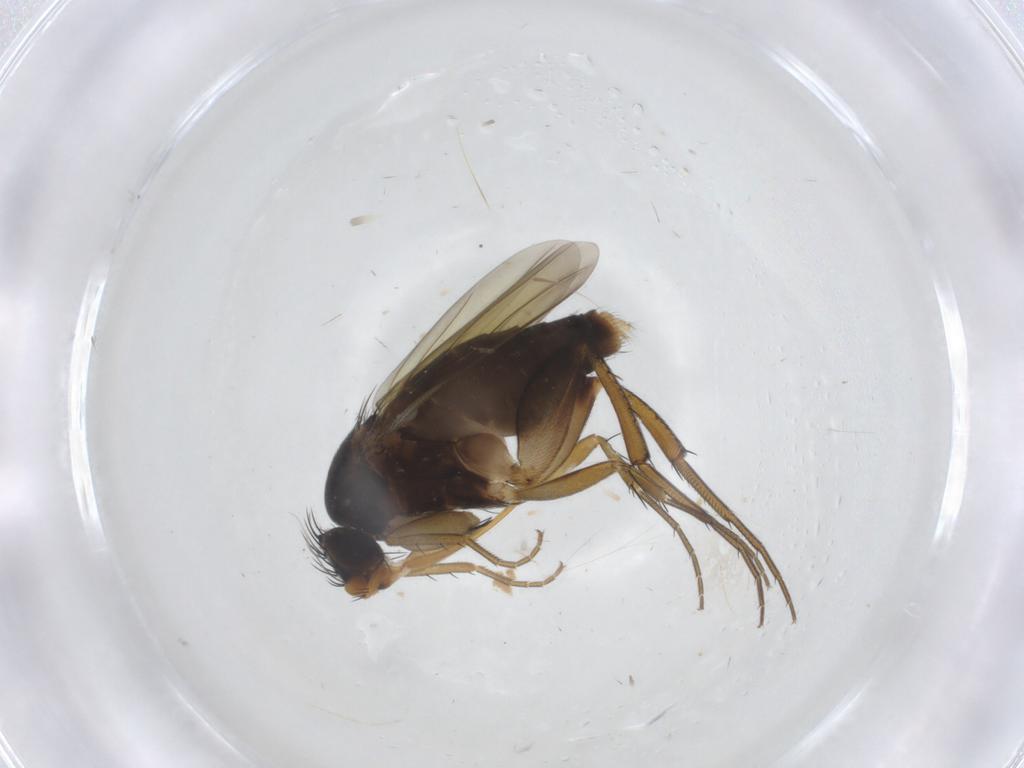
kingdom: Animalia
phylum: Arthropoda
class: Insecta
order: Diptera
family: Phoridae
